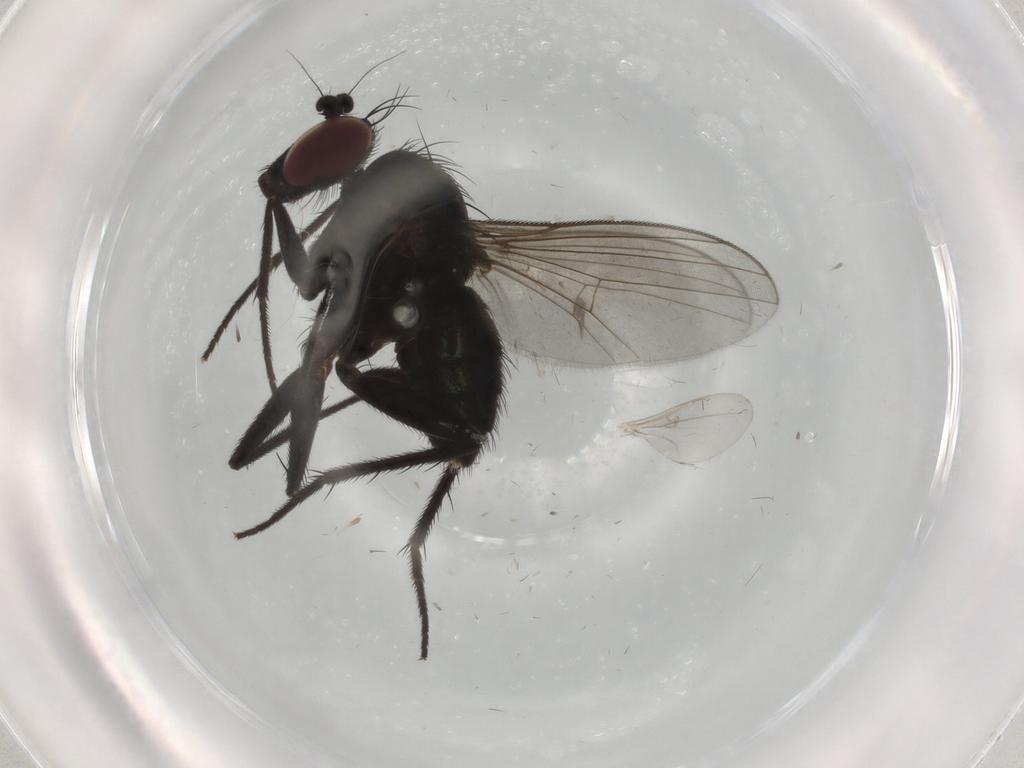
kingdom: Animalia
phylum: Arthropoda
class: Insecta
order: Diptera
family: Dolichopodidae
